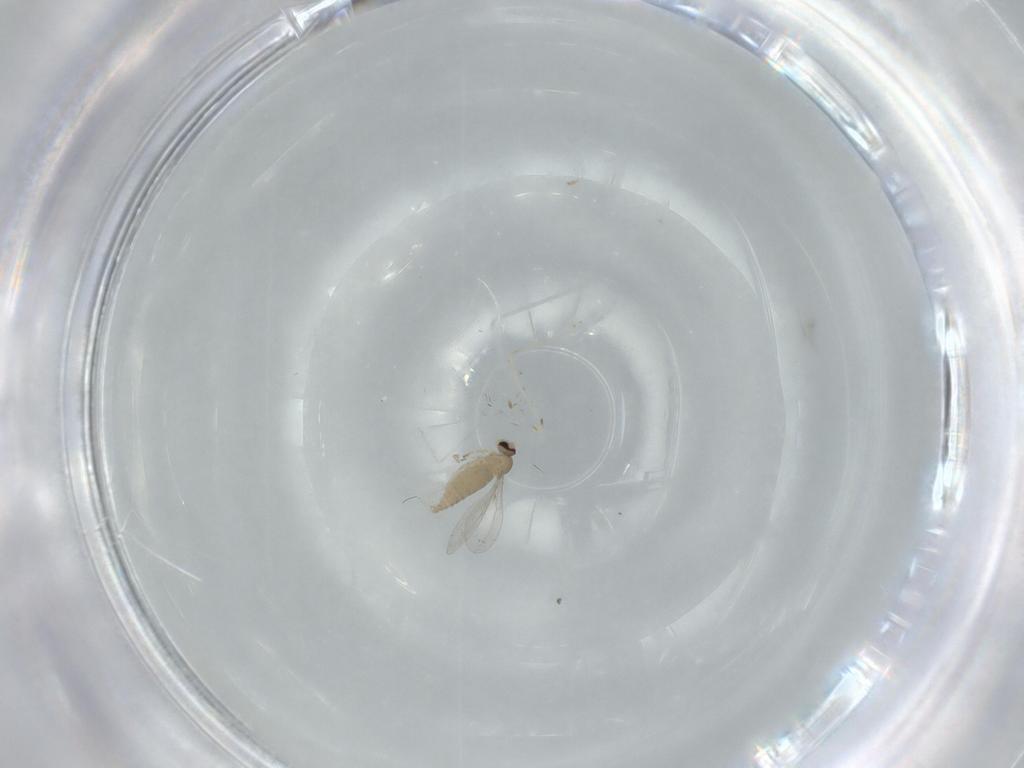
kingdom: Animalia
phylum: Arthropoda
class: Insecta
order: Diptera
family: Cecidomyiidae
